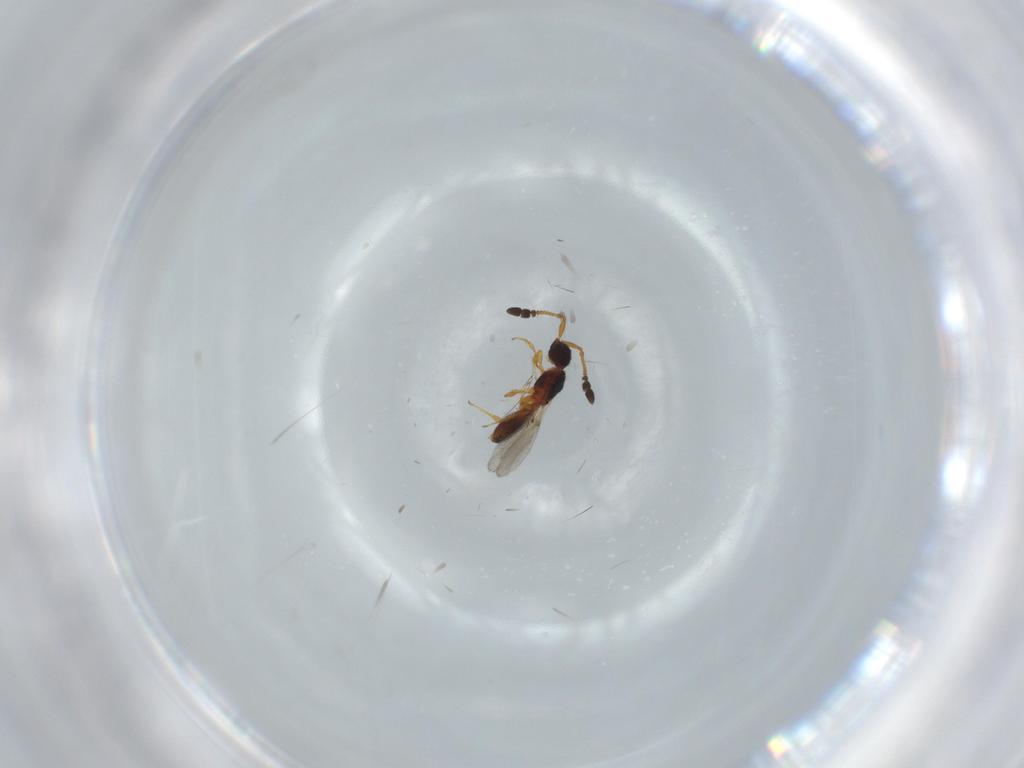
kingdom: Animalia
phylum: Arthropoda
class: Insecta
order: Hymenoptera
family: Diapriidae
